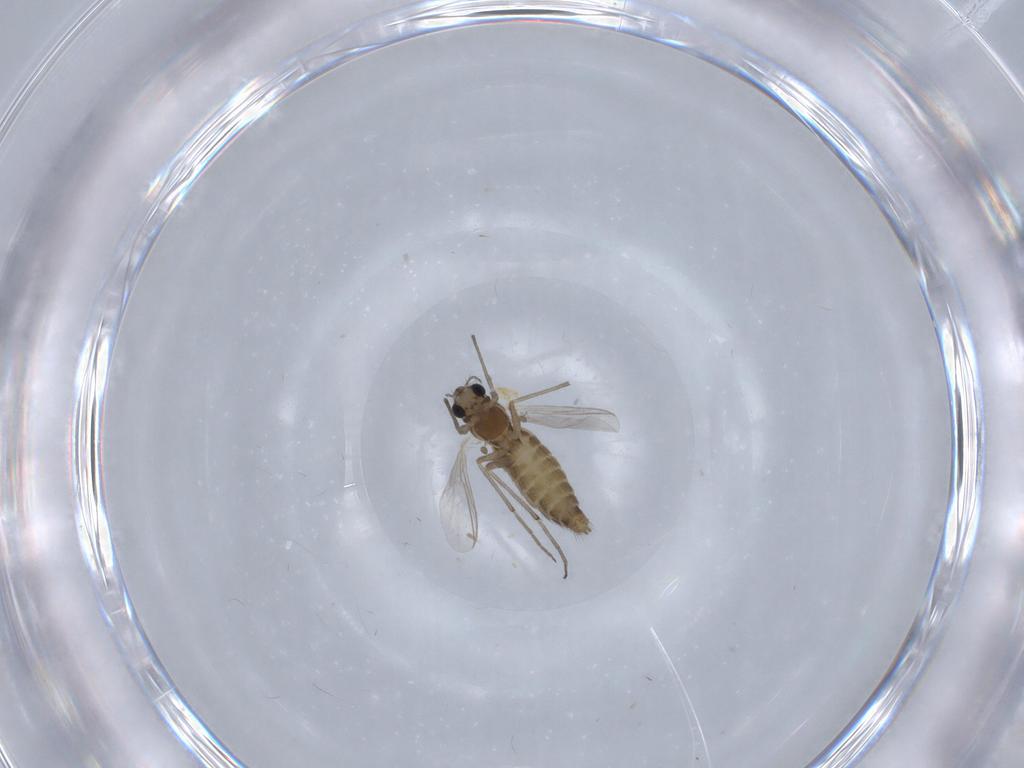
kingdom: Animalia
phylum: Arthropoda
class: Insecta
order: Diptera
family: Chironomidae
